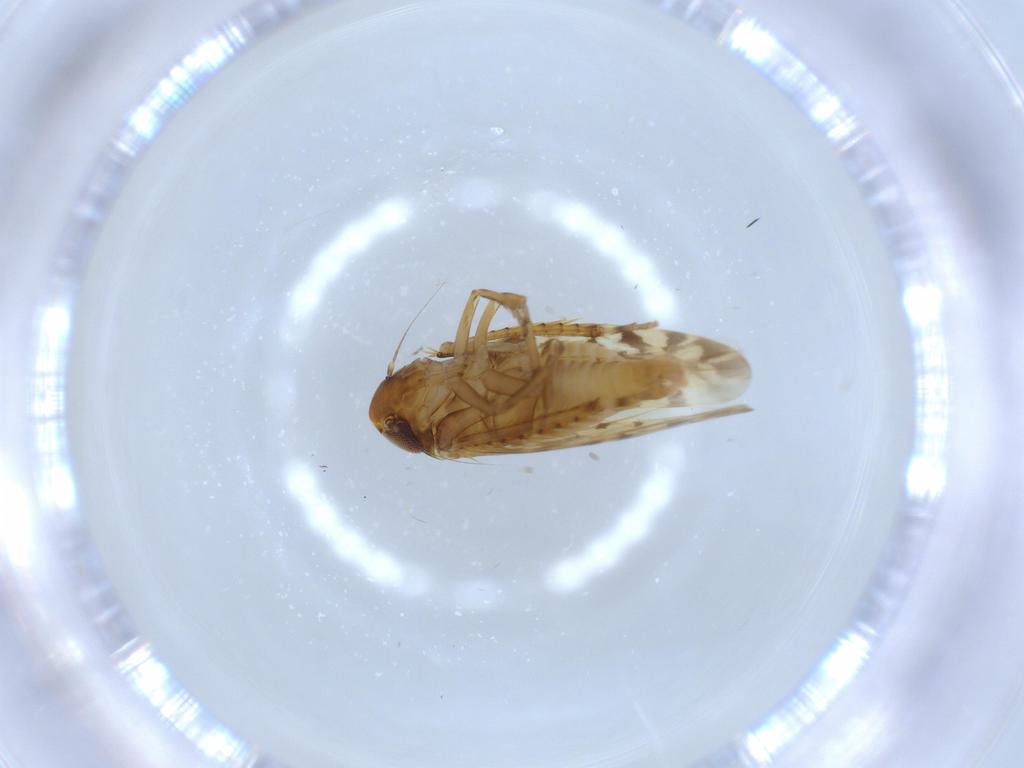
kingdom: Animalia
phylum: Arthropoda
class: Insecta
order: Hemiptera
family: Cicadellidae
